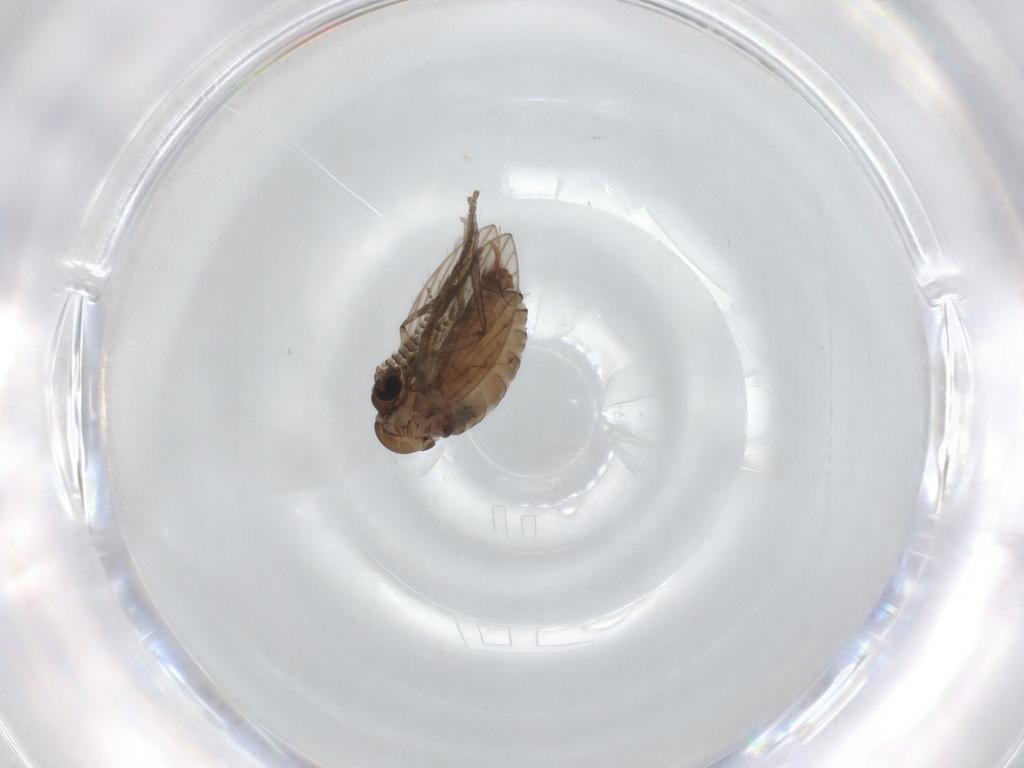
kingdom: Animalia
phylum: Arthropoda
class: Insecta
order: Diptera
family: Psychodidae
